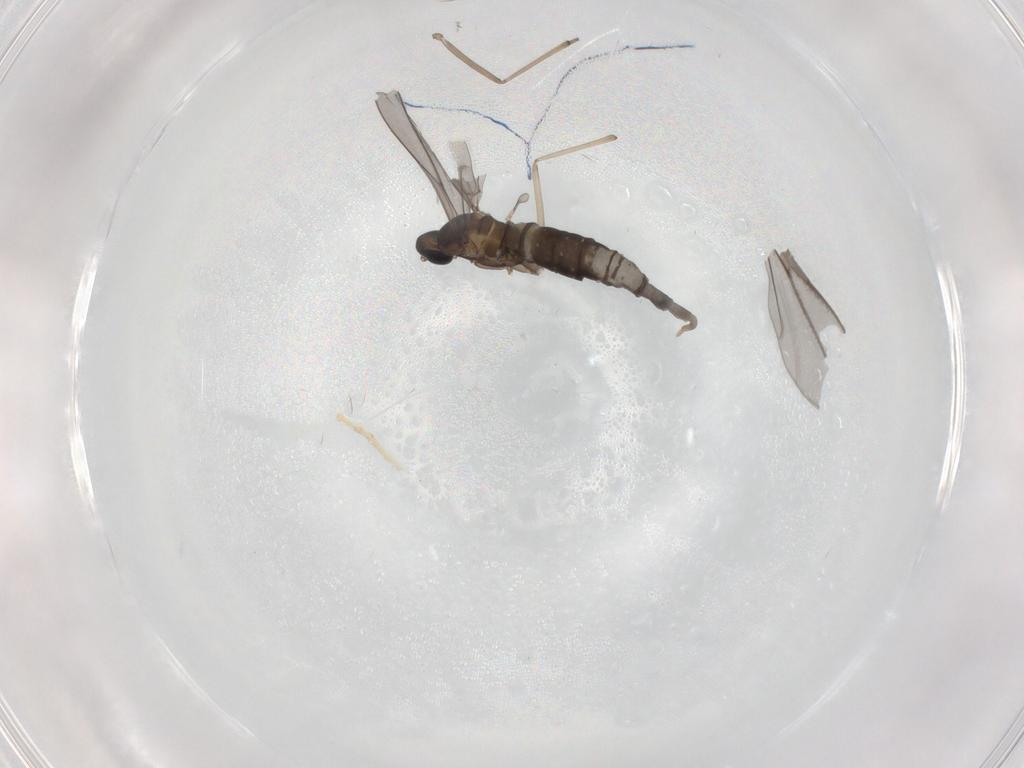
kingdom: Animalia
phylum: Arthropoda
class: Insecta
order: Diptera
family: Cecidomyiidae
